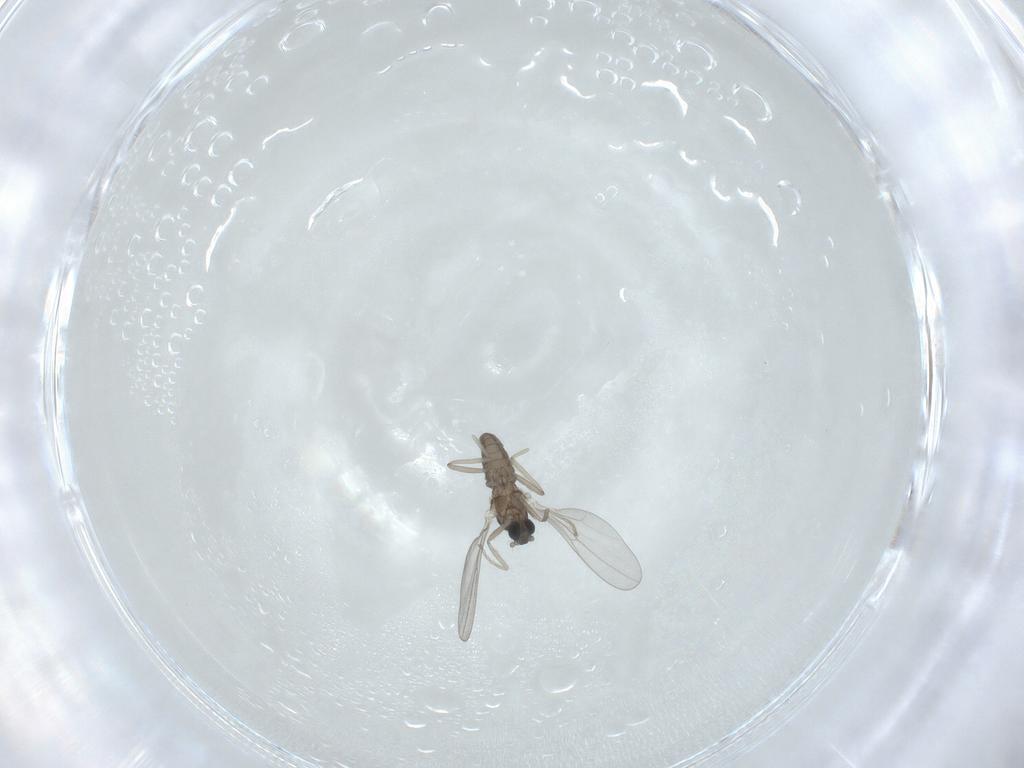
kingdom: Animalia
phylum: Arthropoda
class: Insecta
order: Diptera
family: Cecidomyiidae
